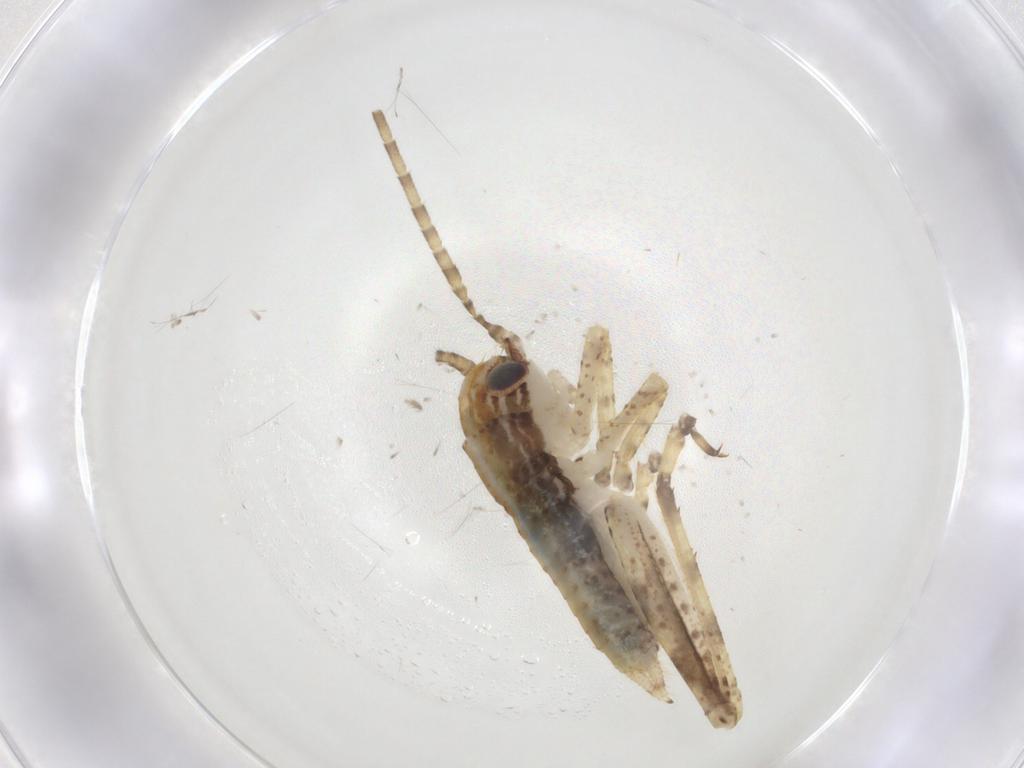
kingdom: Animalia
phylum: Arthropoda
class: Insecta
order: Orthoptera
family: Gryllidae
